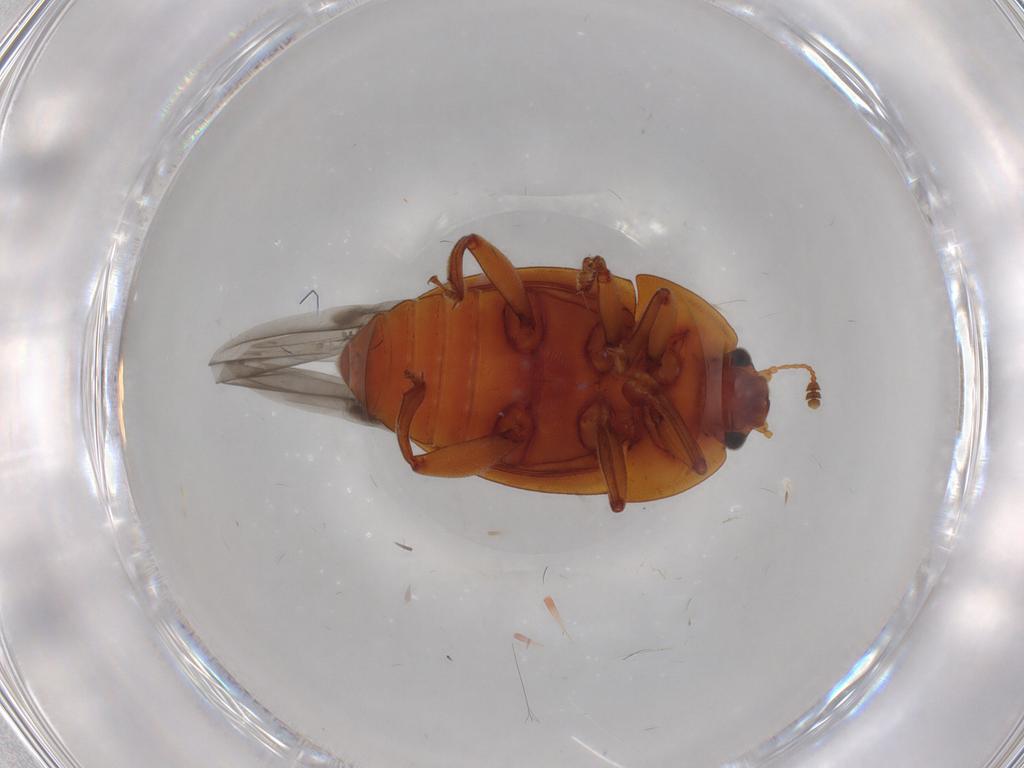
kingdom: Animalia
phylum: Arthropoda
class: Insecta
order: Coleoptera
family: Nitidulidae
